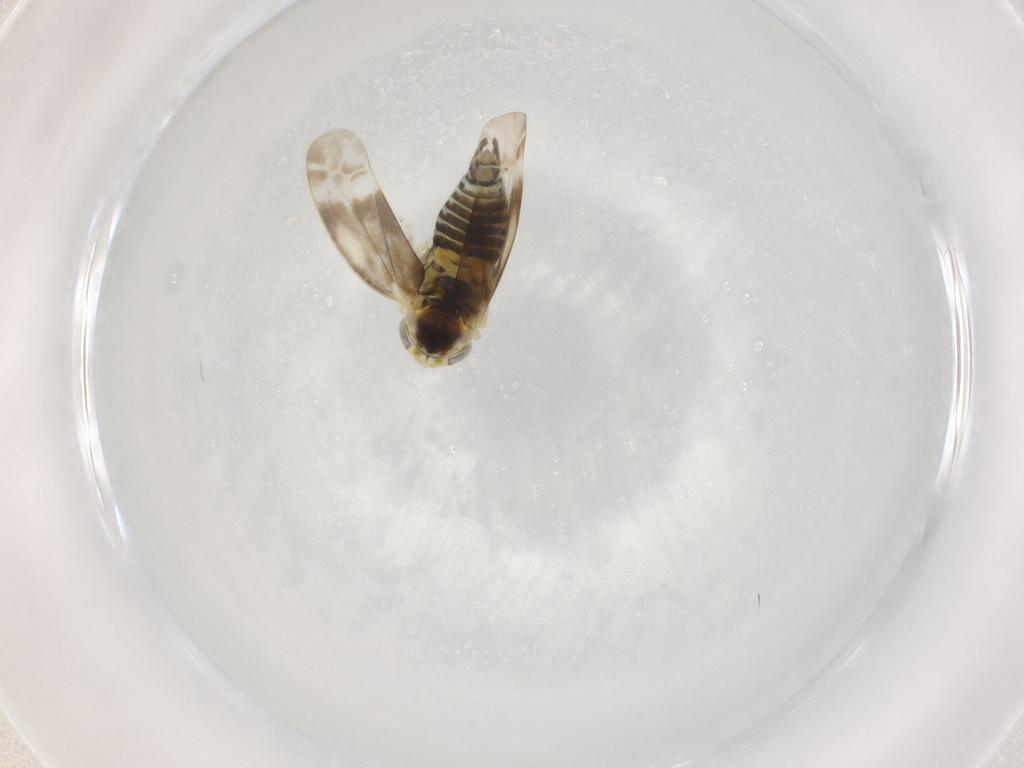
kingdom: Animalia
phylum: Arthropoda
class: Insecta
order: Hemiptera
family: Cicadellidae
